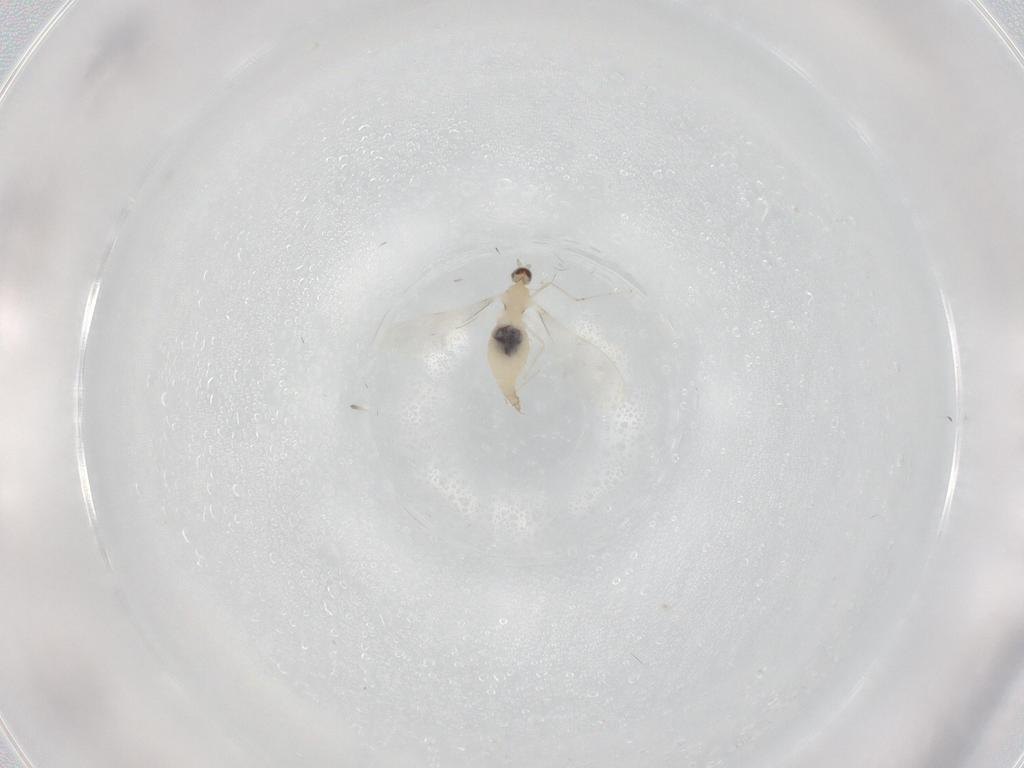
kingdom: Animalia
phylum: Arthropoda
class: Insecta
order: Diptera
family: Cecidomyiidae
